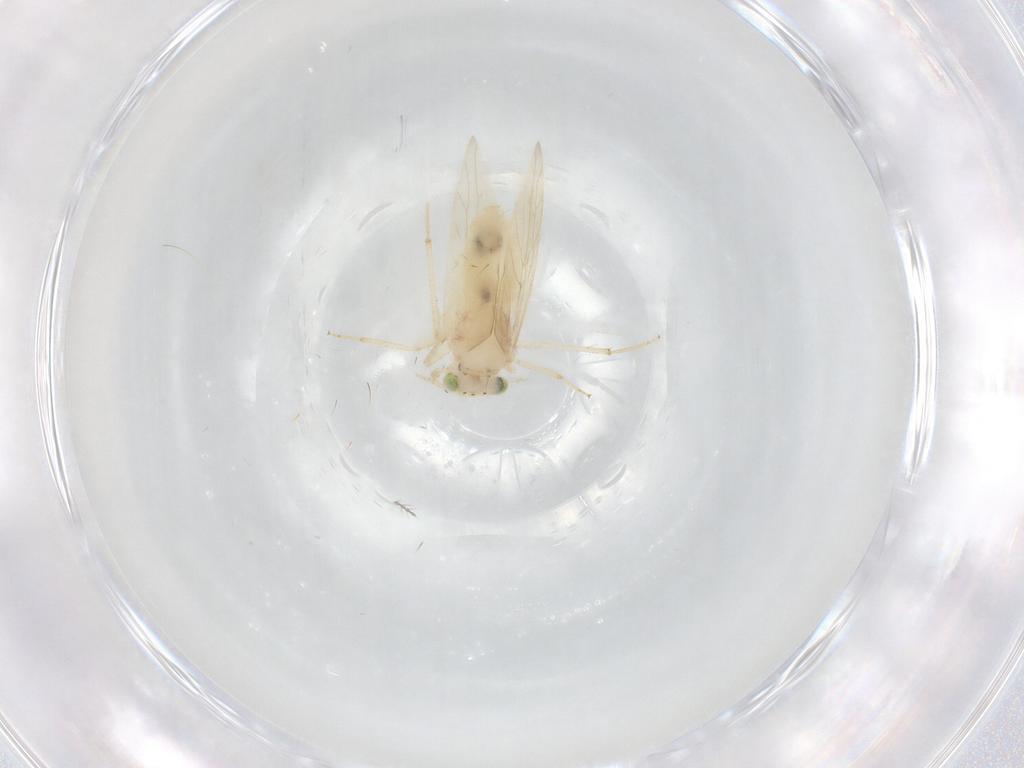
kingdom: Animalia
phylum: Arthropoda
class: Insecta
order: Psocodea
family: Lepidopsocidae
